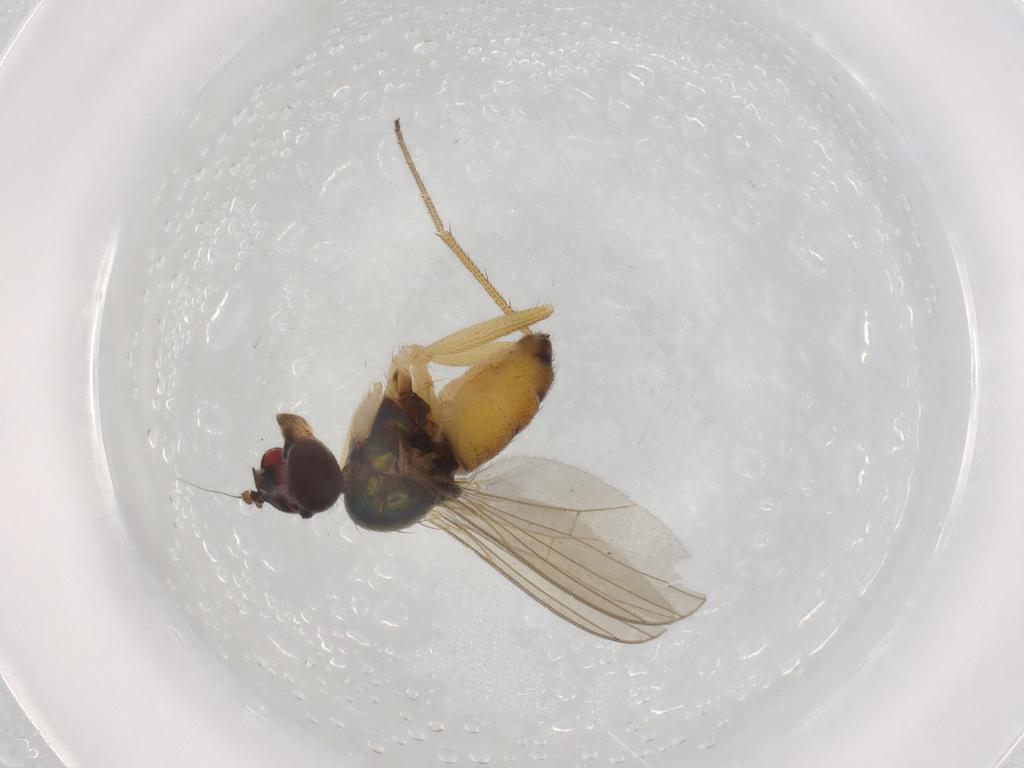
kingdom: Animalia
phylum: Arthropoda
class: Insecta
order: Diptera
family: Dolichopodidae
